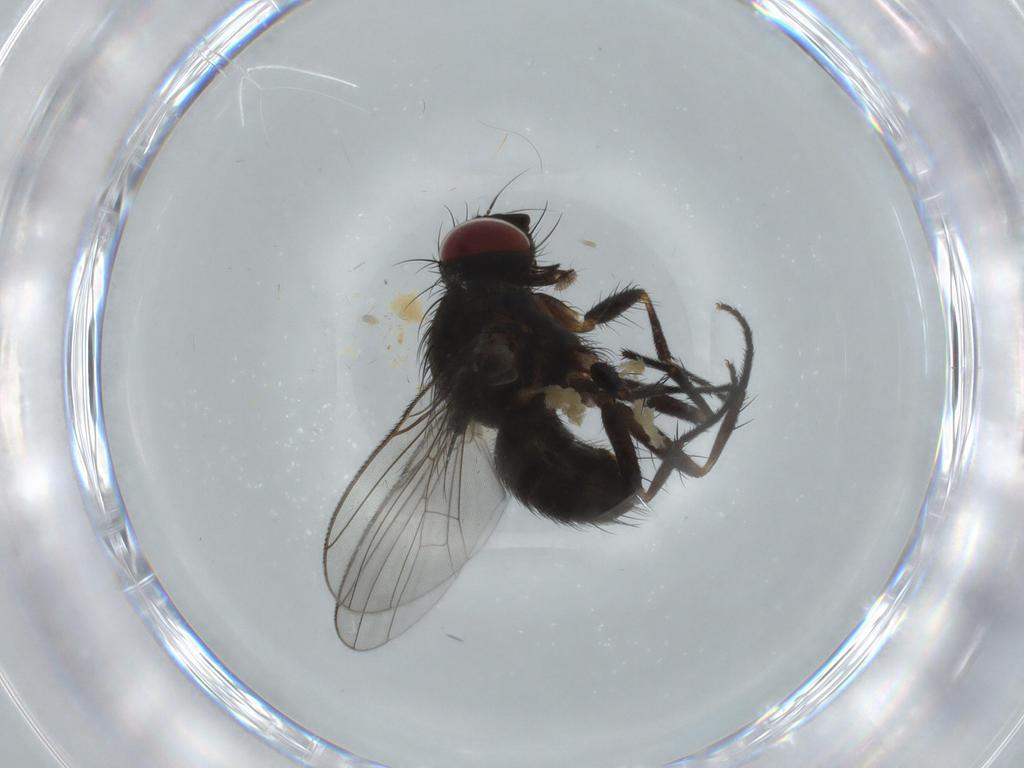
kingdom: Animalia
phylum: Arthropoda
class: Insecta
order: Diptera
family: Muscidae
